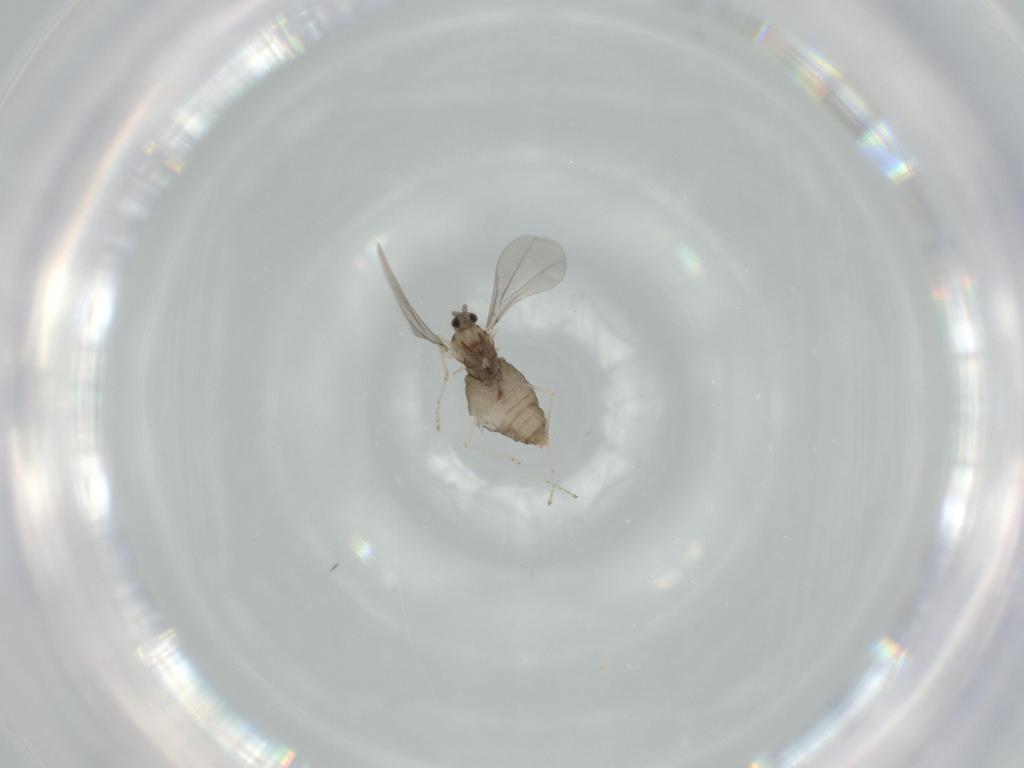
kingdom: Animalia
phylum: Arthropoda
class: Insecta
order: Diptera
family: Cecidomyiidae
